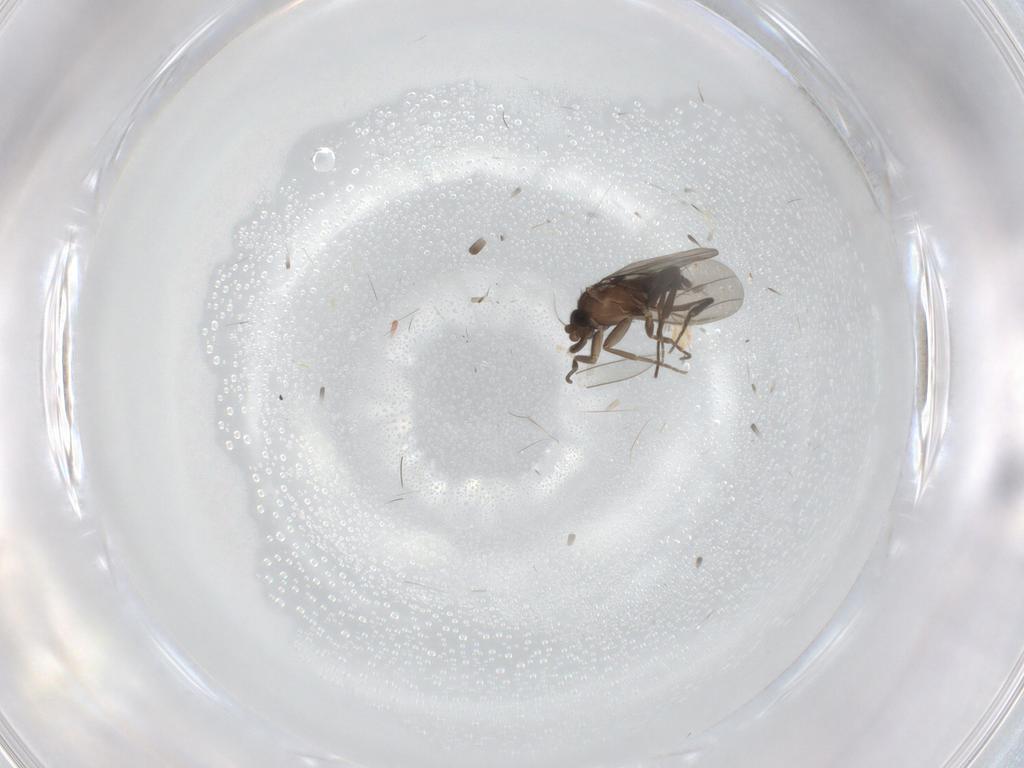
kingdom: Animalia
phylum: Arthropoda
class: Insecta
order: Diptera
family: Cecidomyiidae
